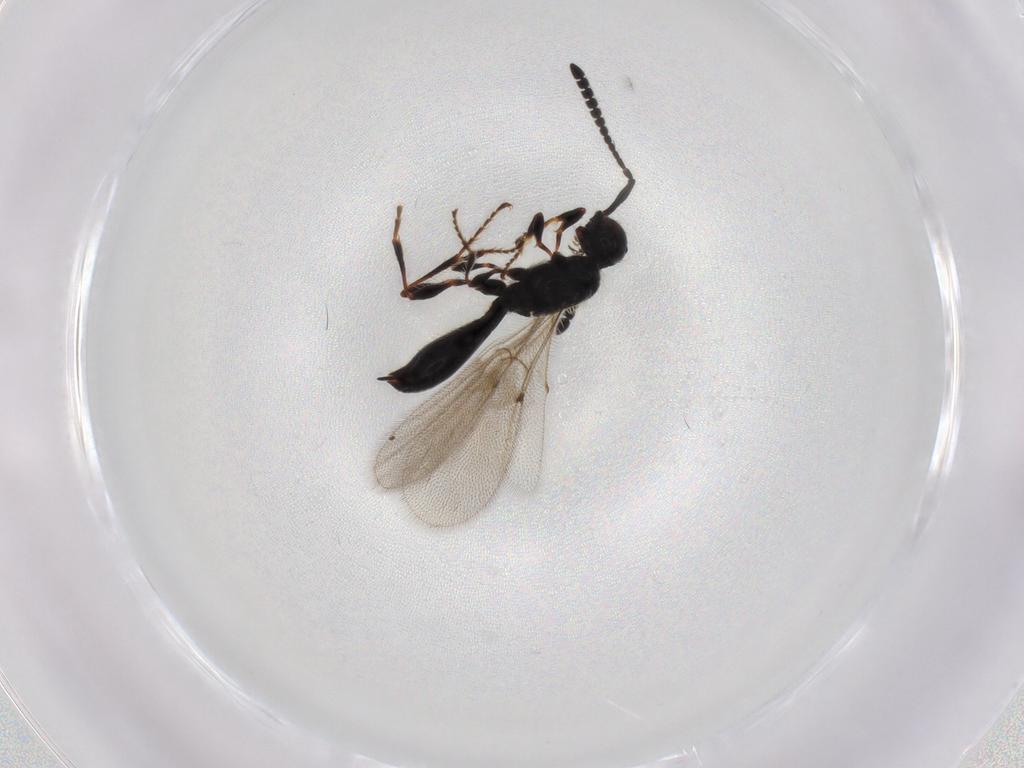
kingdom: Animalia
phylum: Arthropoda
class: Insecta
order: Hymenoptera
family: Diapriidae
